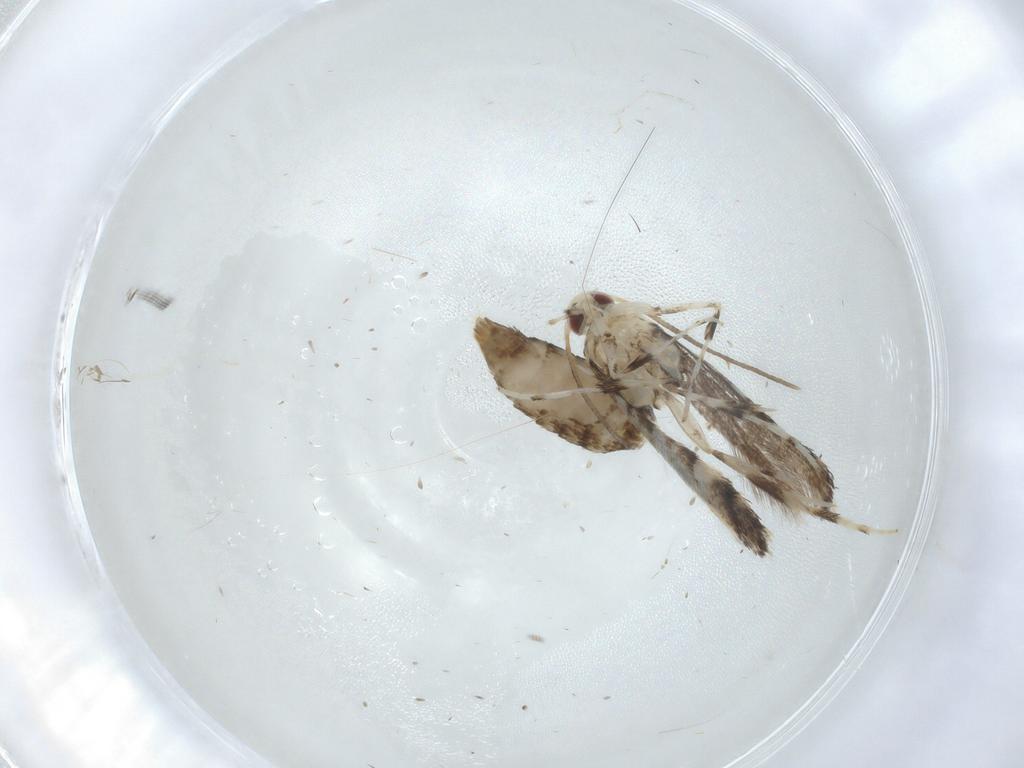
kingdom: Animalia
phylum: Arthropoda
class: Insecta
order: Lepidoptera
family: Gracillariidae
